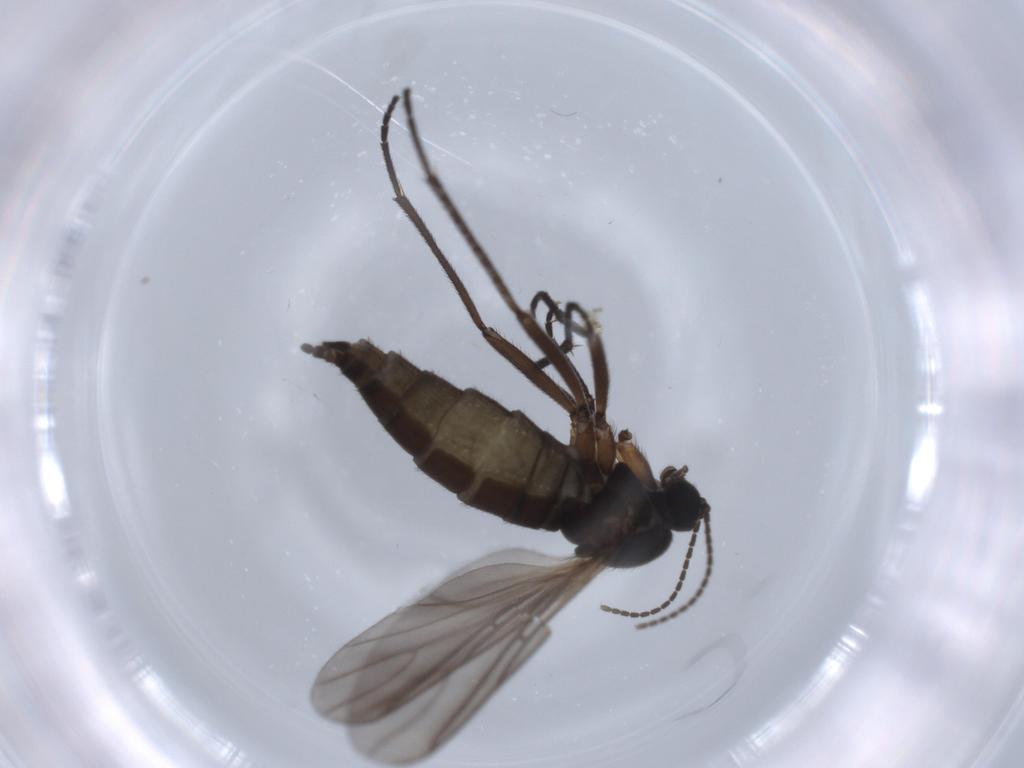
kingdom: Animalia
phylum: Arthropoda
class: Insecta
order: Diptera
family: Sciaridae
